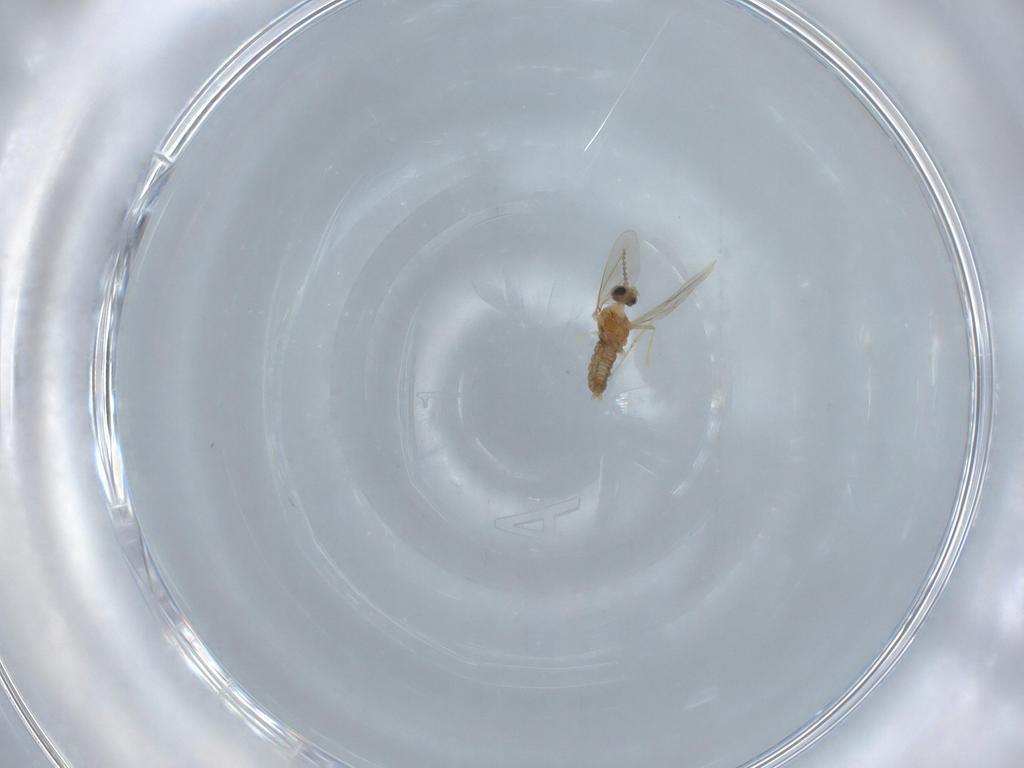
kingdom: Animalia
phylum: Arthropoda
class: Insecta
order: Diptera
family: Cecidomyiidae
